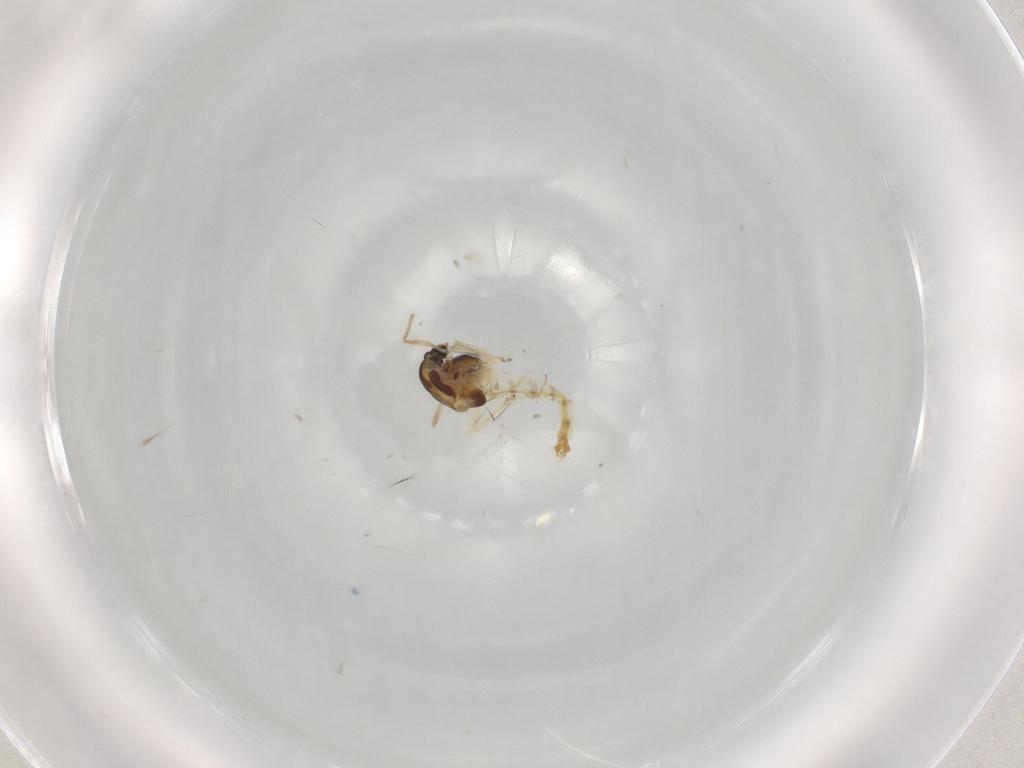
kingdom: Animalia
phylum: Arthropoda
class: Insecta
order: Diptera
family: Chironomidae
